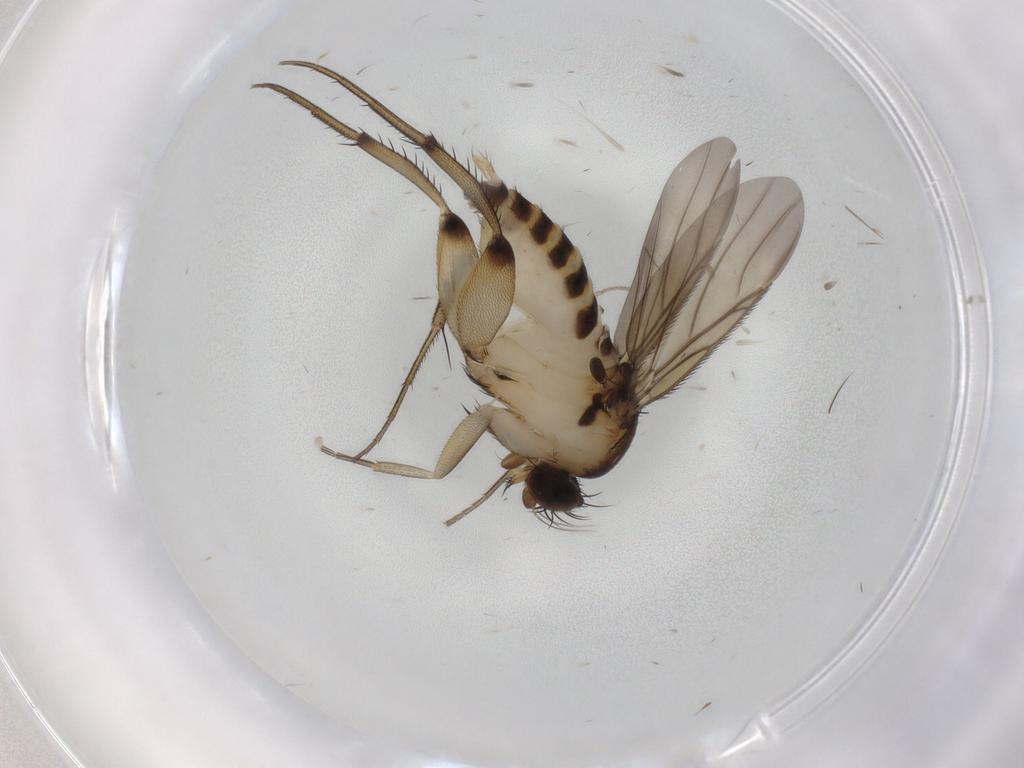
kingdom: Animalia
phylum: Arthropoda
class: Insecta
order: Diptera
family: Phoridae
